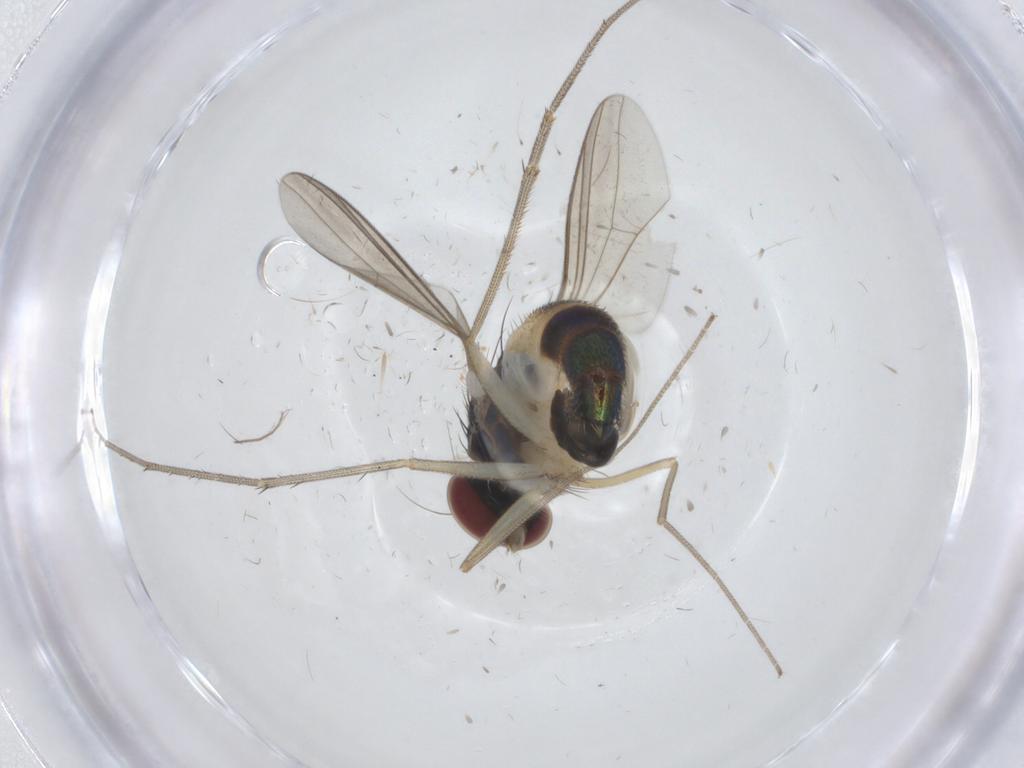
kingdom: Animalia
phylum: Arthropoda
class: Insecta
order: Diptera
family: Dolichopodidae
